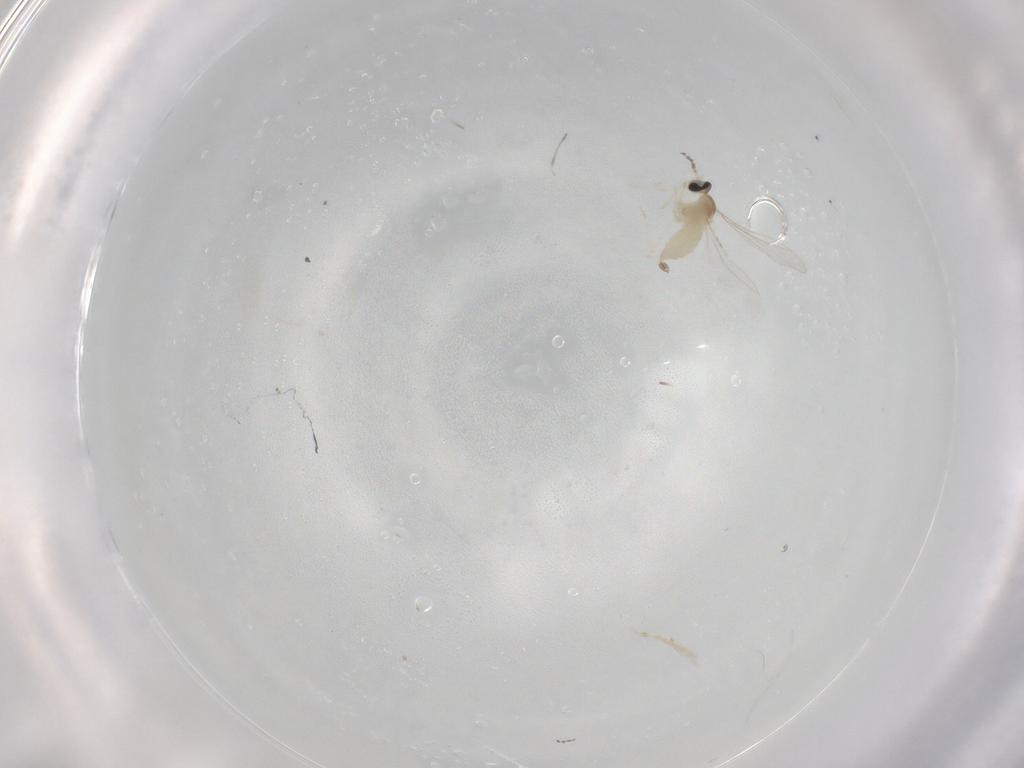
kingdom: Animalia
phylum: Arthropoda
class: Insecta
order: Diptera
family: Cecidomyiidae
